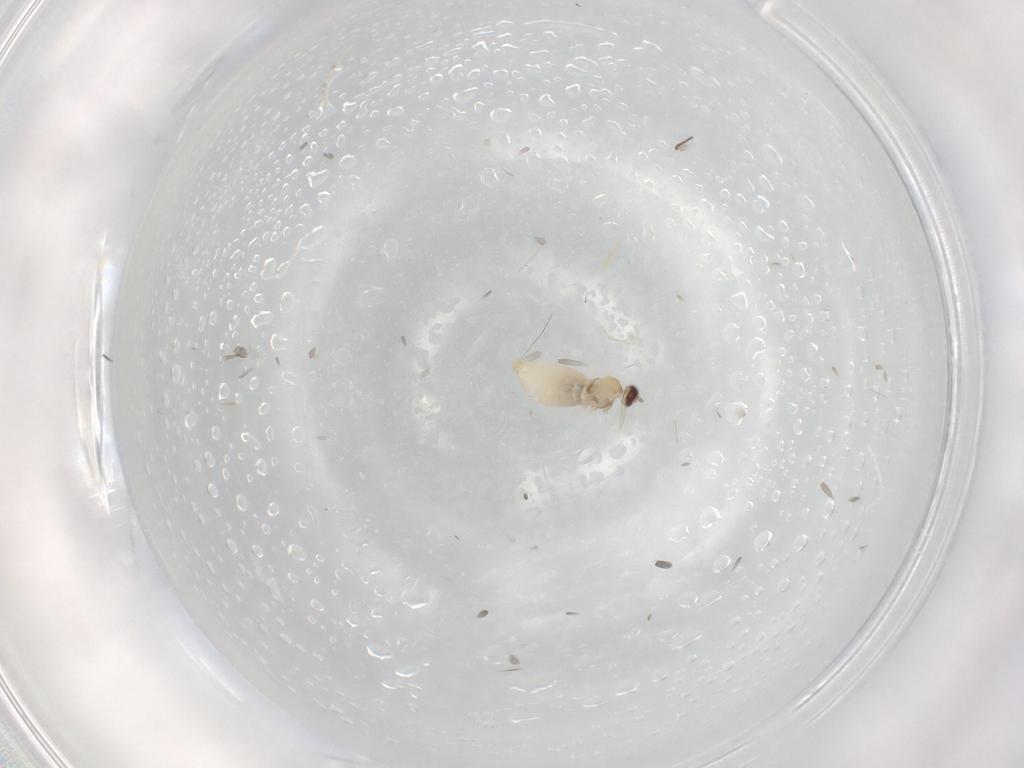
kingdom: Animalia
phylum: Arthropoda
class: Insecta
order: Diptera
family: Chironomidae
